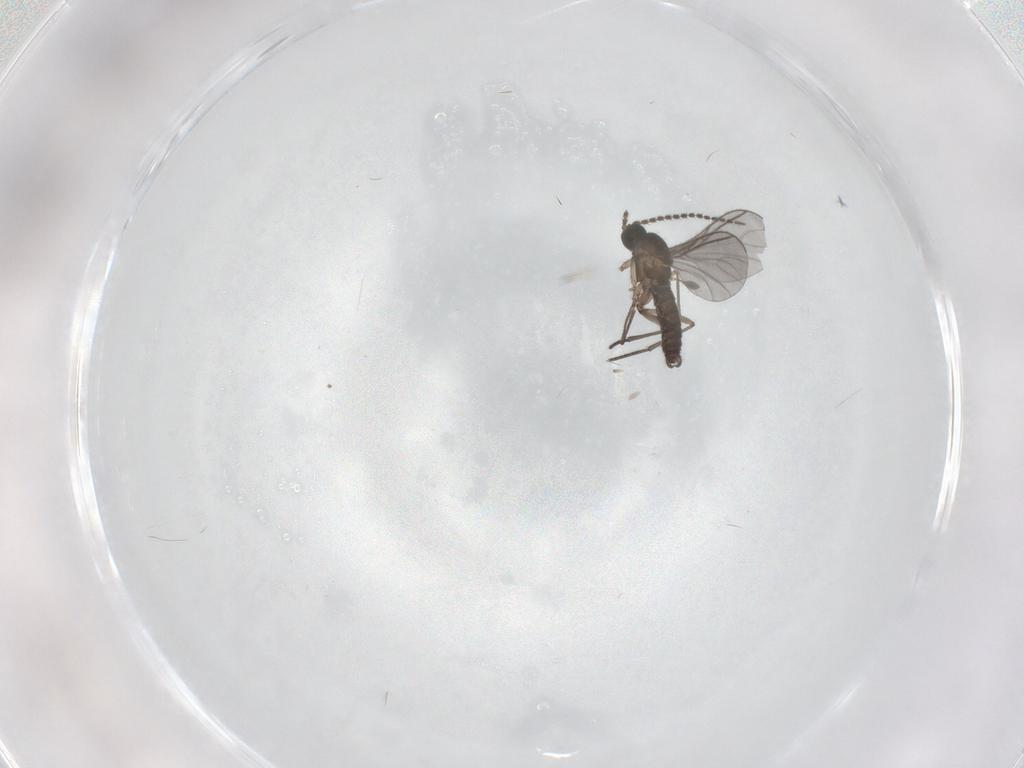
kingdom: Animalia
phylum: Arthropoda
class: Insecta
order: Diptera
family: Sciaridae
